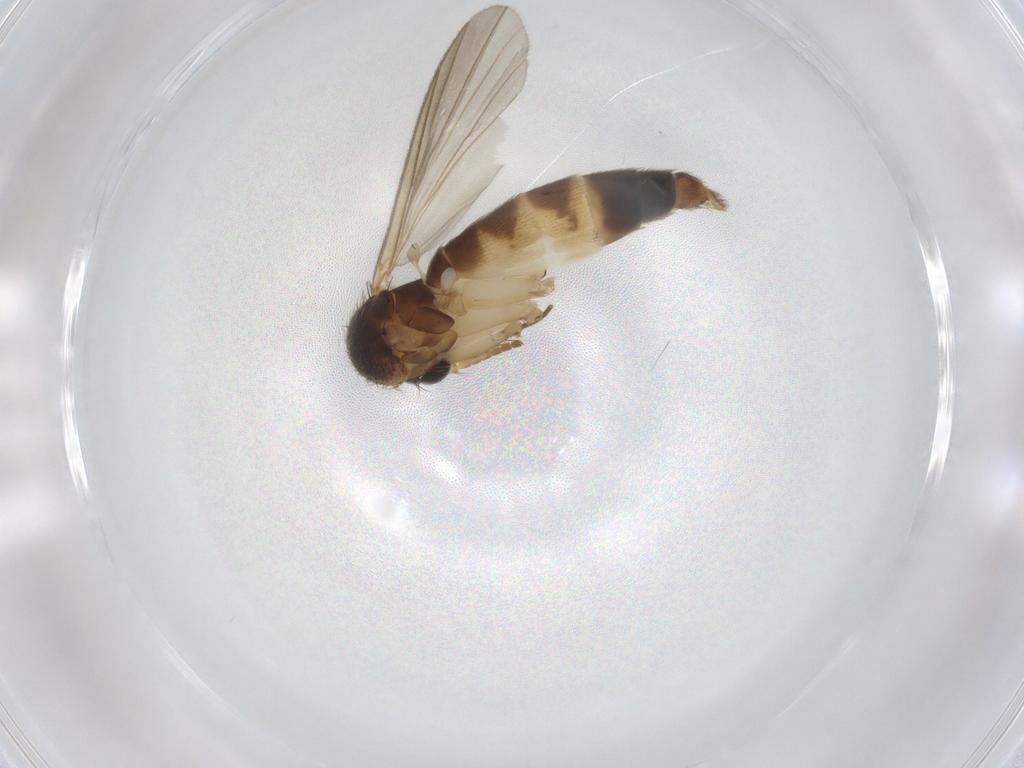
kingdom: Animalia
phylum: Arthropoda
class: Insecta
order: Diptera
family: Cecidomyiidae
